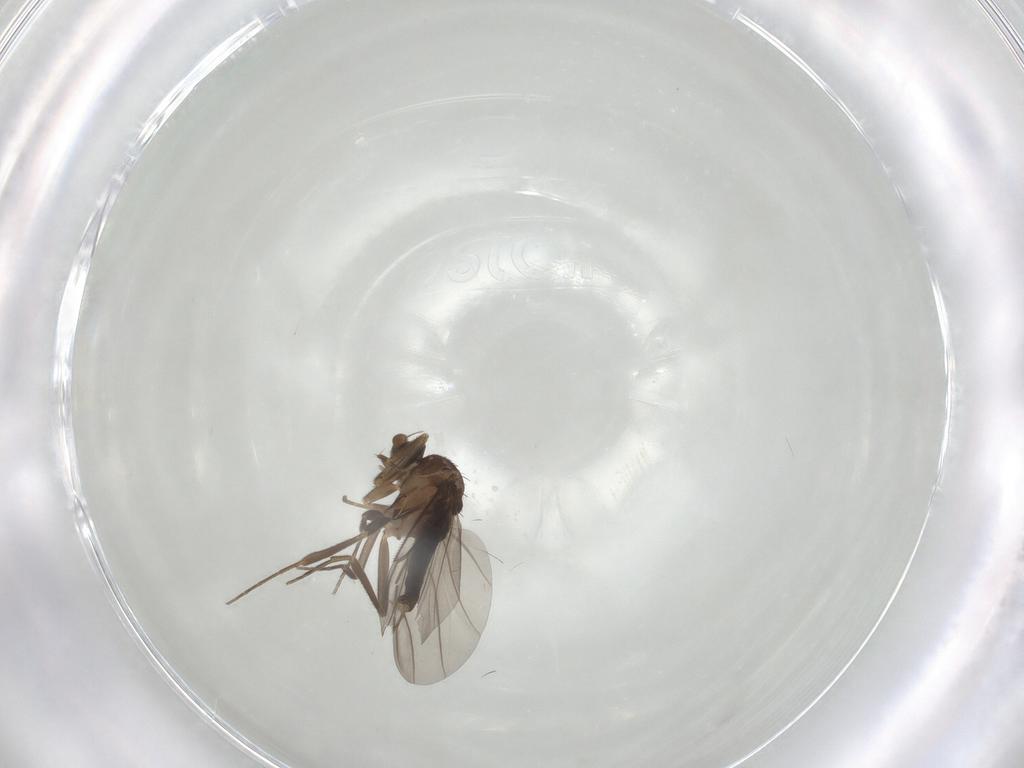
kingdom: Animalia
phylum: Arthropoda
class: Insecta
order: Diptera
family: Phoridae
